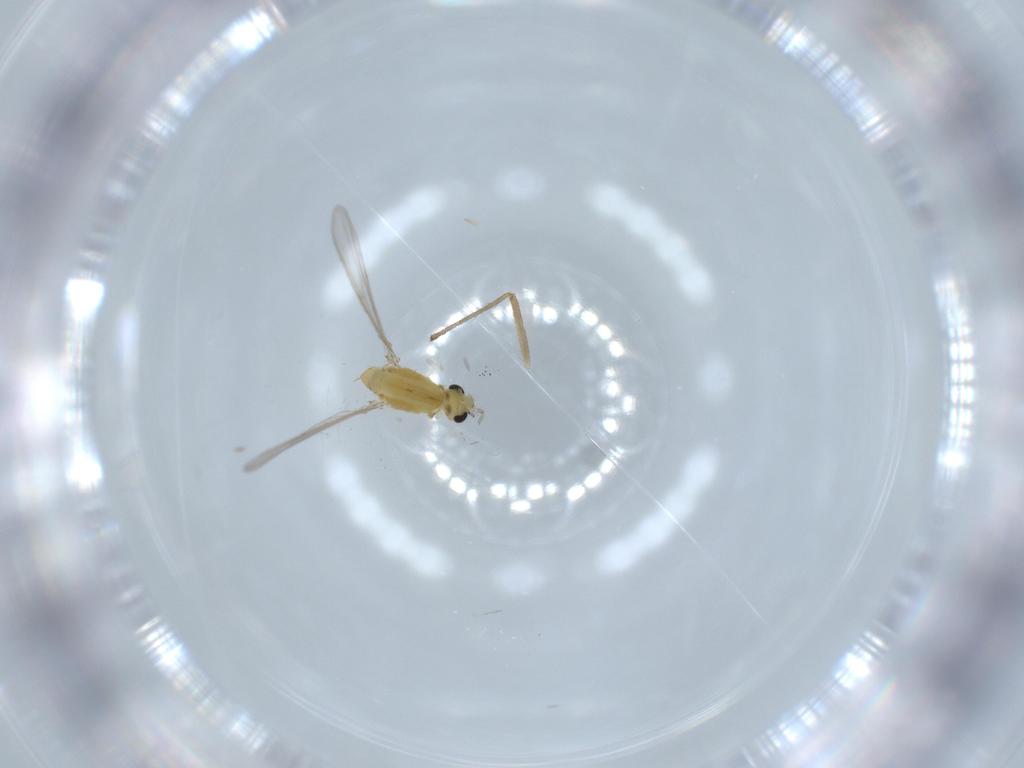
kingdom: Animalia
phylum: Arthropoda
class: Insecta
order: Diptera
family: Chironomidae
